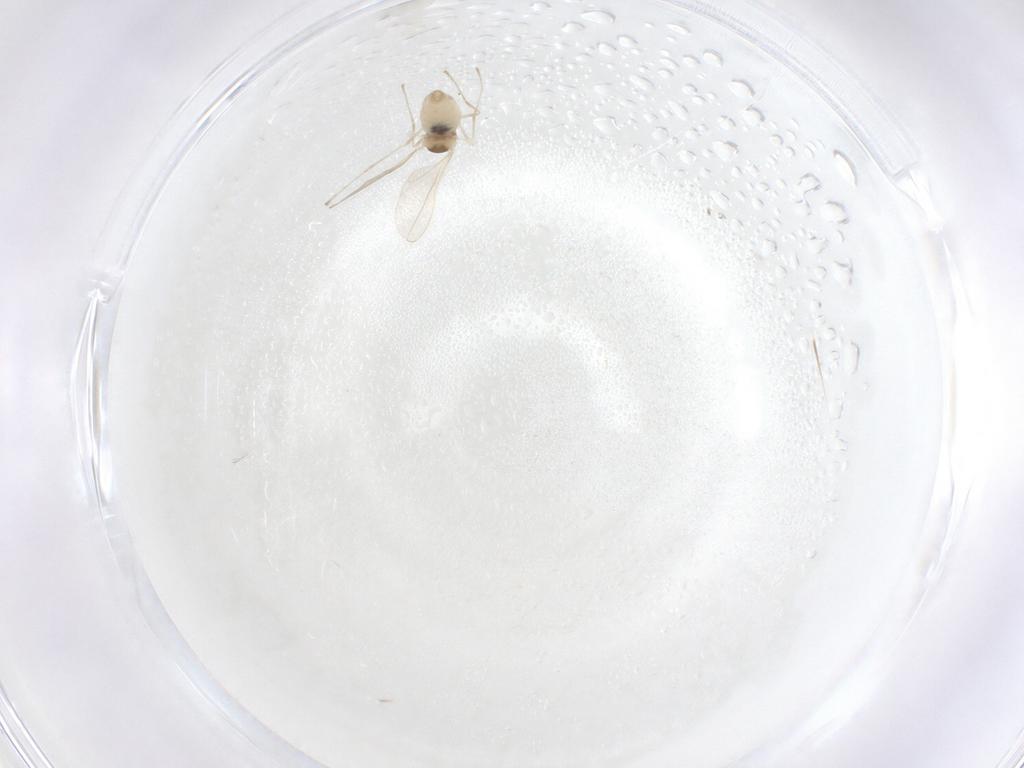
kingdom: Animalia
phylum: Arthropoda
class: Insecta
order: Diptera
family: Cecidomyiidae
